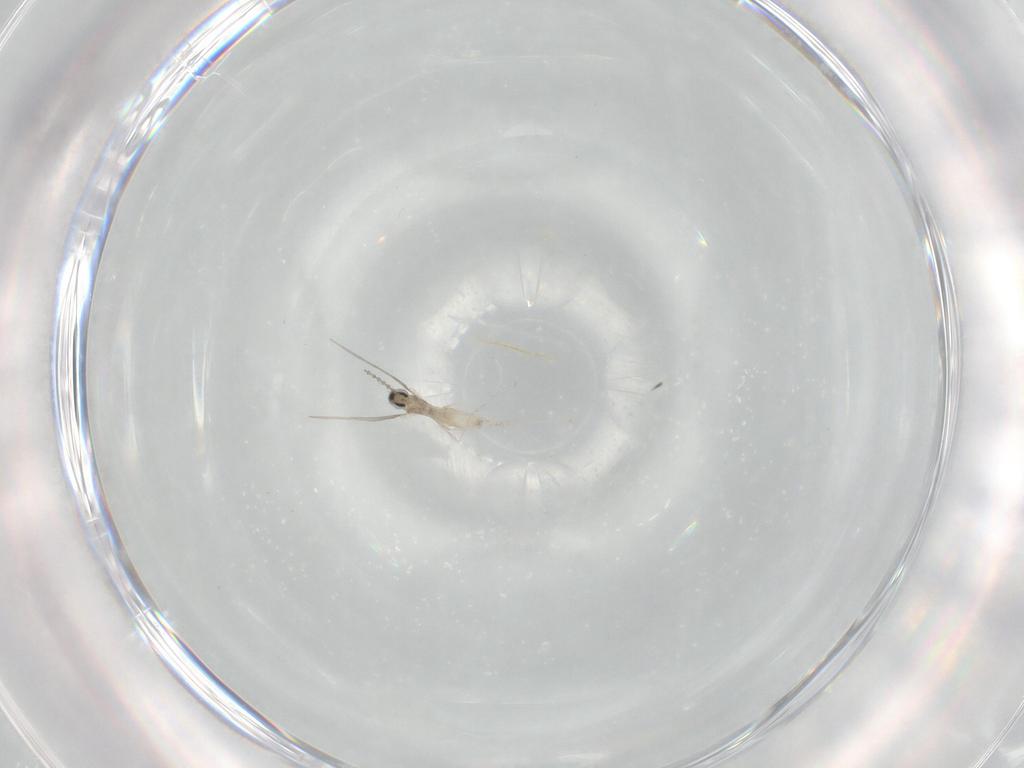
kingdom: Animalia
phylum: Arthropoda
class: Insecta
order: Diptera
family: Cecidomyiidae
